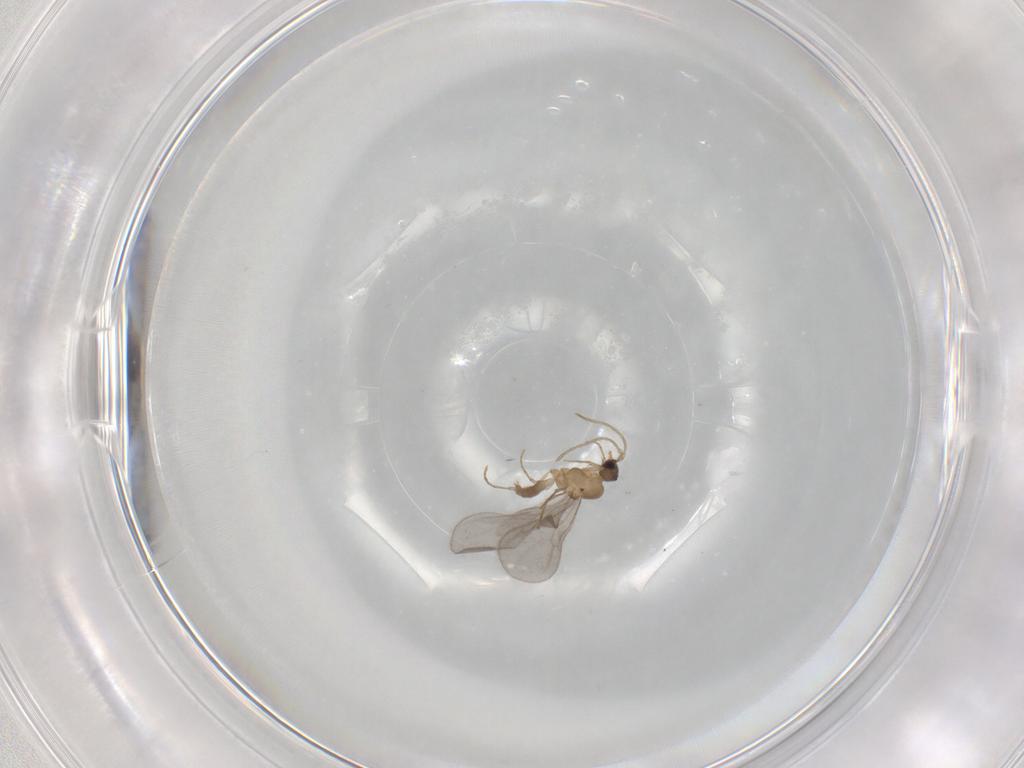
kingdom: Animalia
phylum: Arthropoda
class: Insecta
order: Hymenoptera
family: Formicidae
